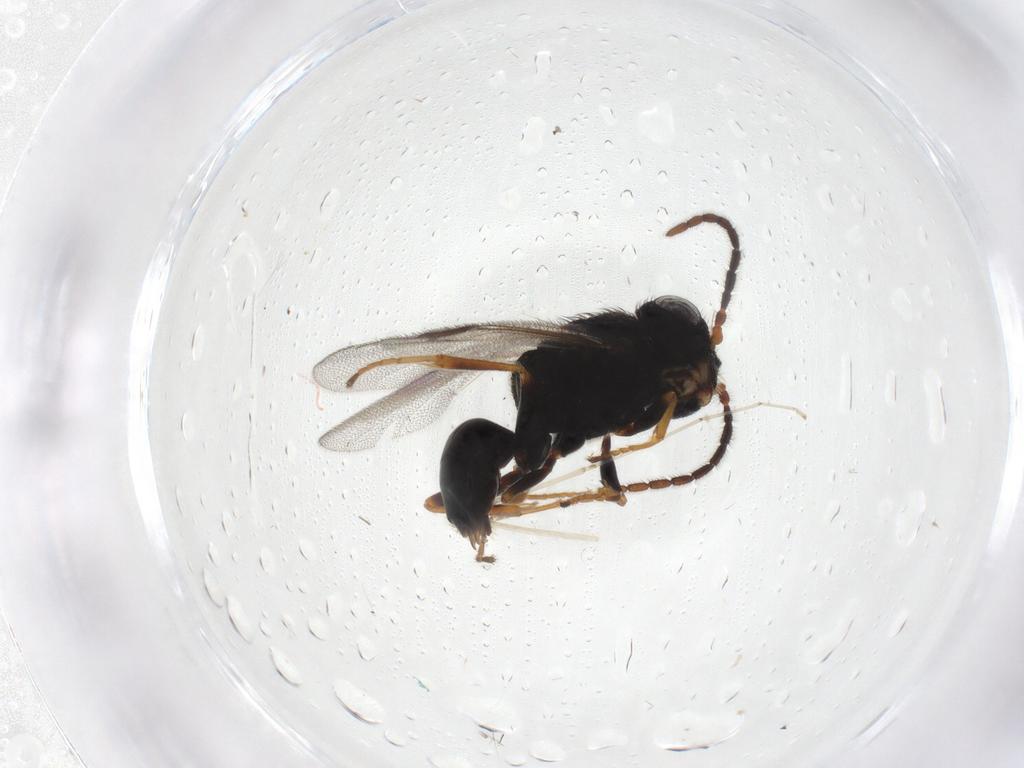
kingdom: Animalia
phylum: Arthropoda
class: Insecta
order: Hymenoptera
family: Dryinidae
